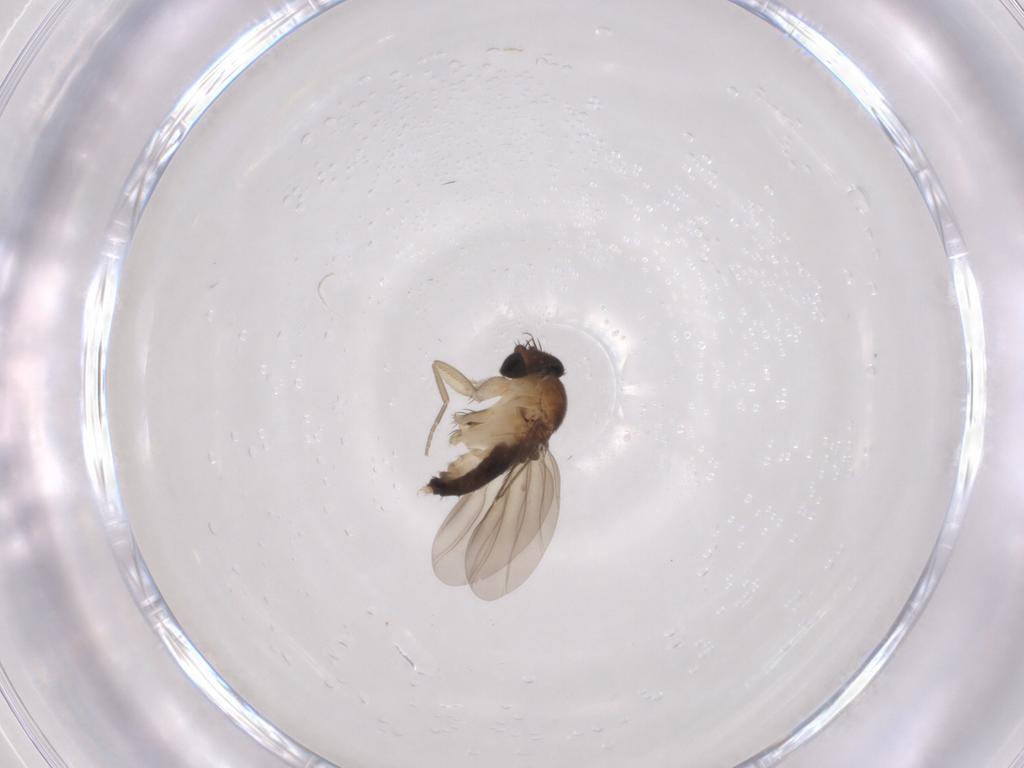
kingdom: Animalia
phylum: Arthropoda
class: Insecta
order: Diptera
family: Phoridae
